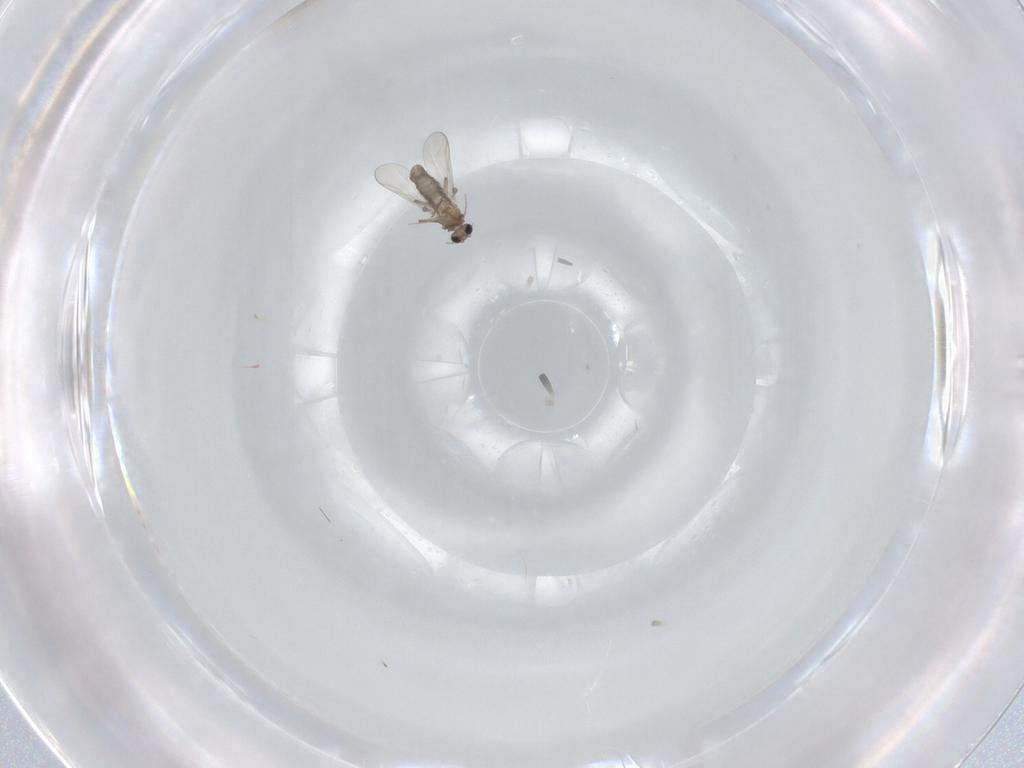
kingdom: Animalia
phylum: Arthropoda
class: Insecta
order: Diptera
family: Chironomidae
